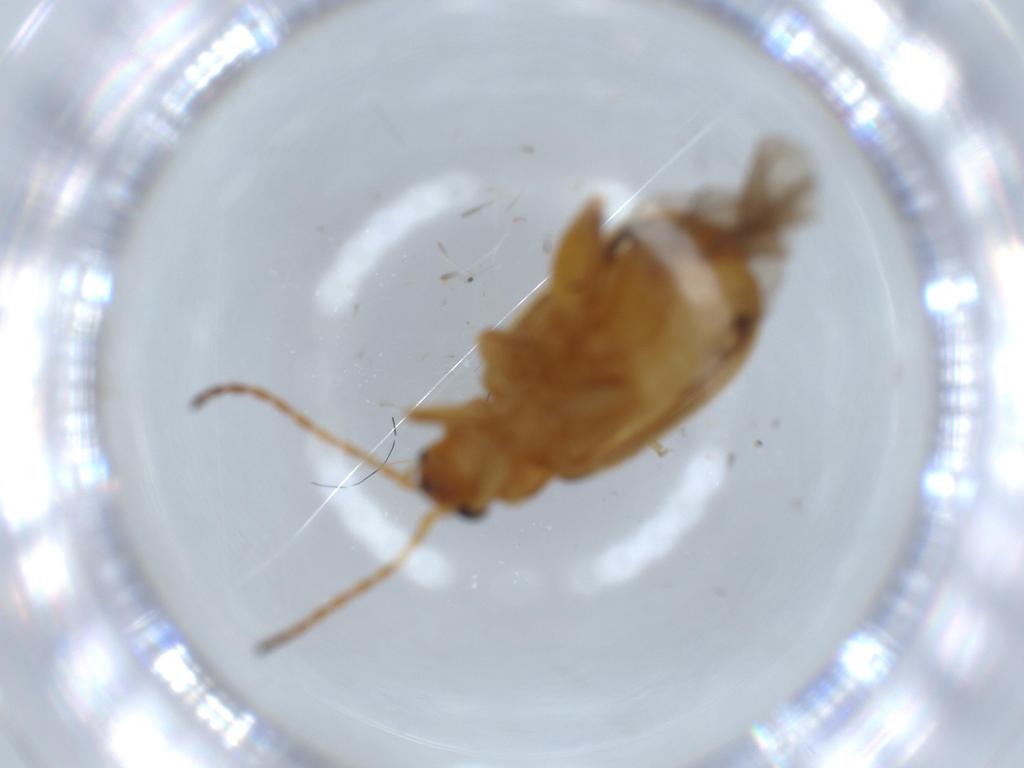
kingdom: Animalia
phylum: Arthropoda
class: Insecta
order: Coleoptera
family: Chrysomelidae
